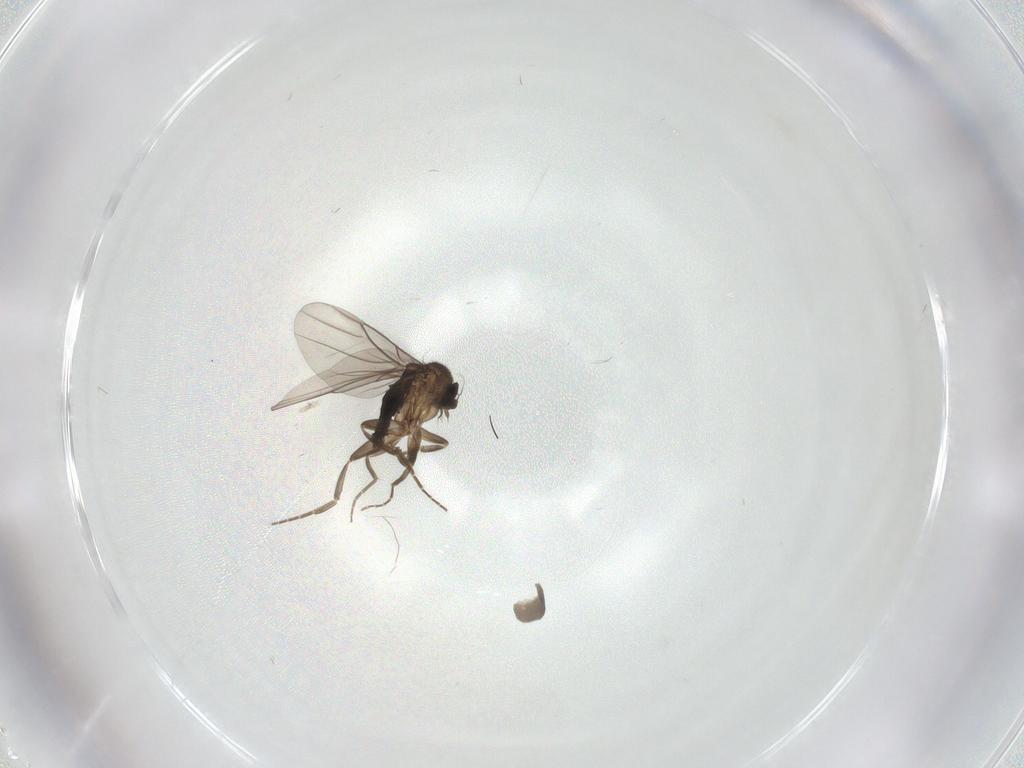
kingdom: Animalia
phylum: Arthropoda
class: Insecta
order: Diptera
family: Phoridae
